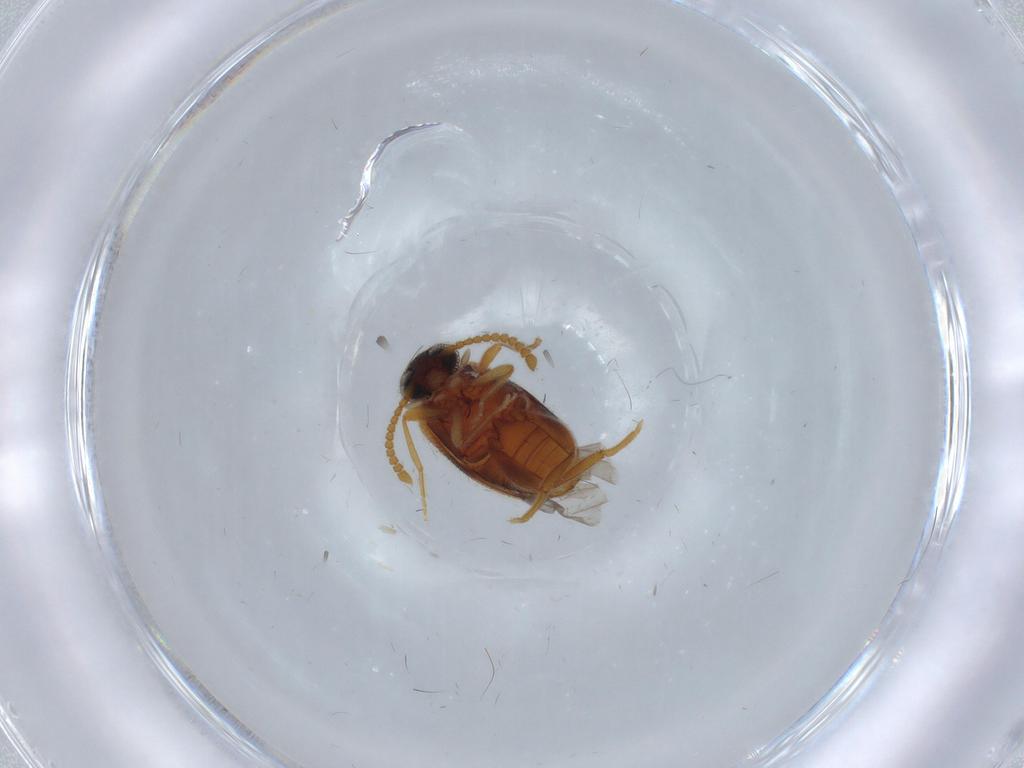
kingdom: Animalia
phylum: Arthropoda
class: Insecta
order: Coleoptera
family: Aderidae
